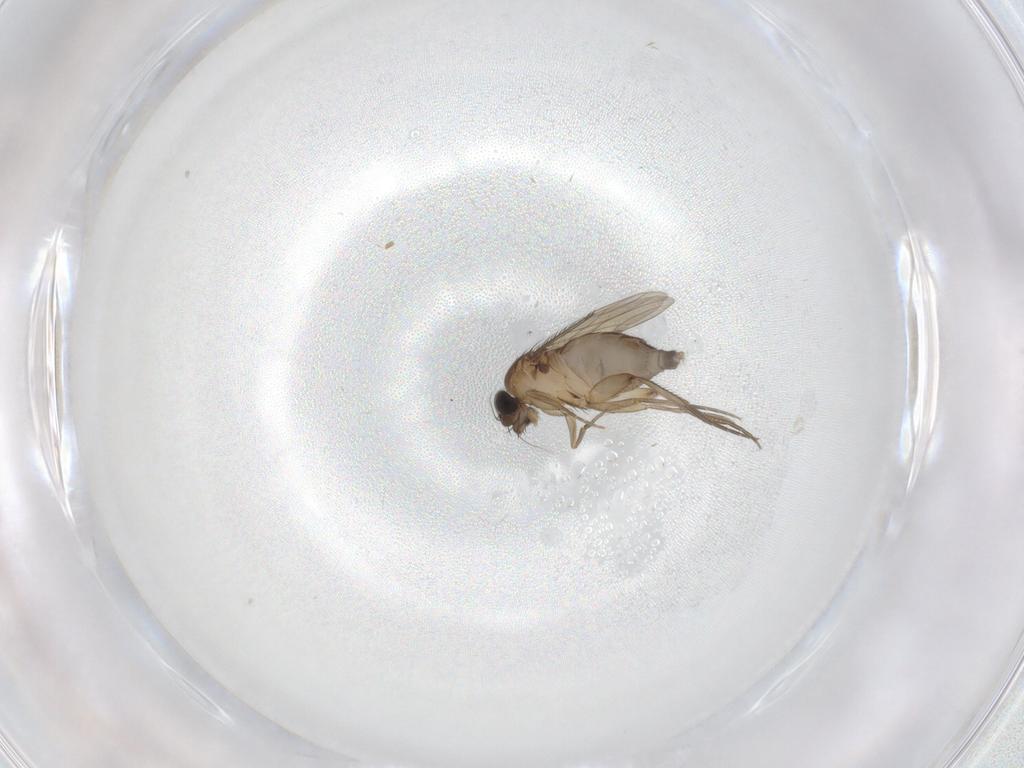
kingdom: Animalia
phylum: Arthropoda
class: Insecta
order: Diptera
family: Phoridae
